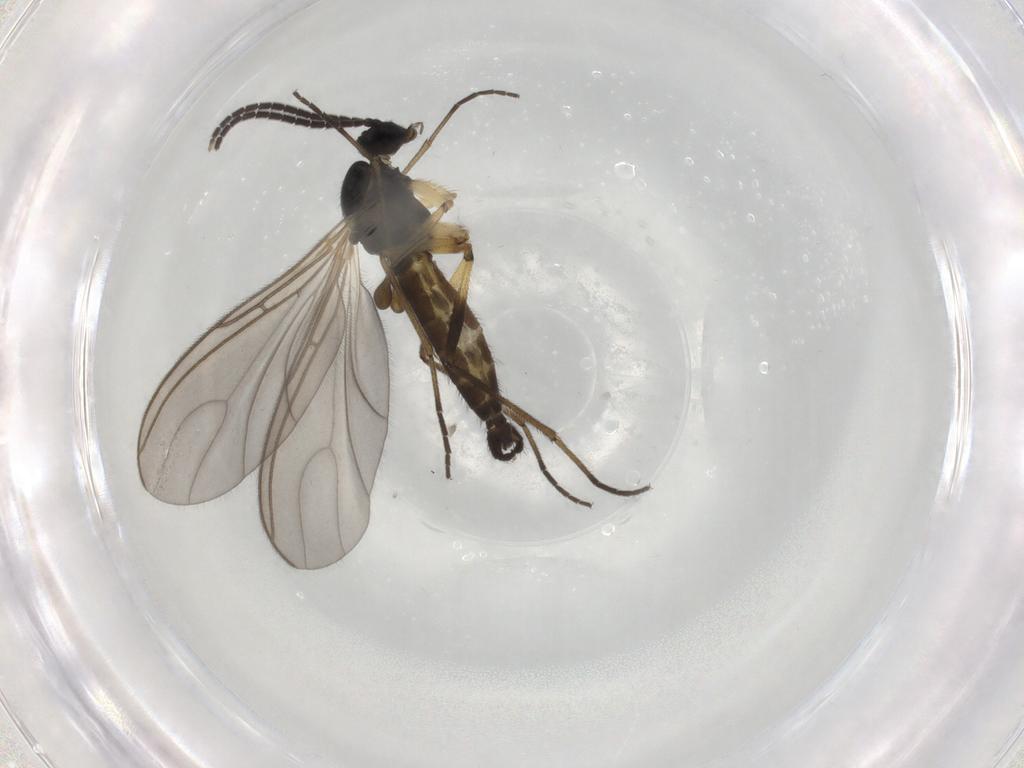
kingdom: Animalia
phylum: Arthropoda
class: Insecta
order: Diptera
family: Sciaridae
